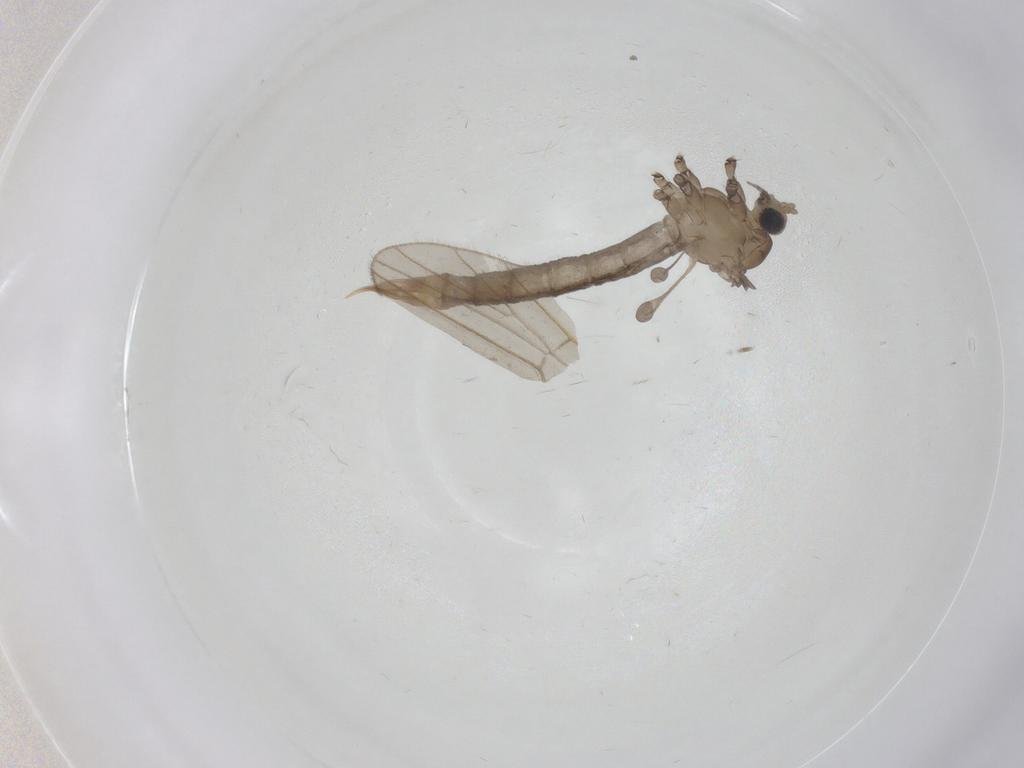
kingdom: Animalia
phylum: Arthropoda
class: Insecta
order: Diptera
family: Limoniidae
